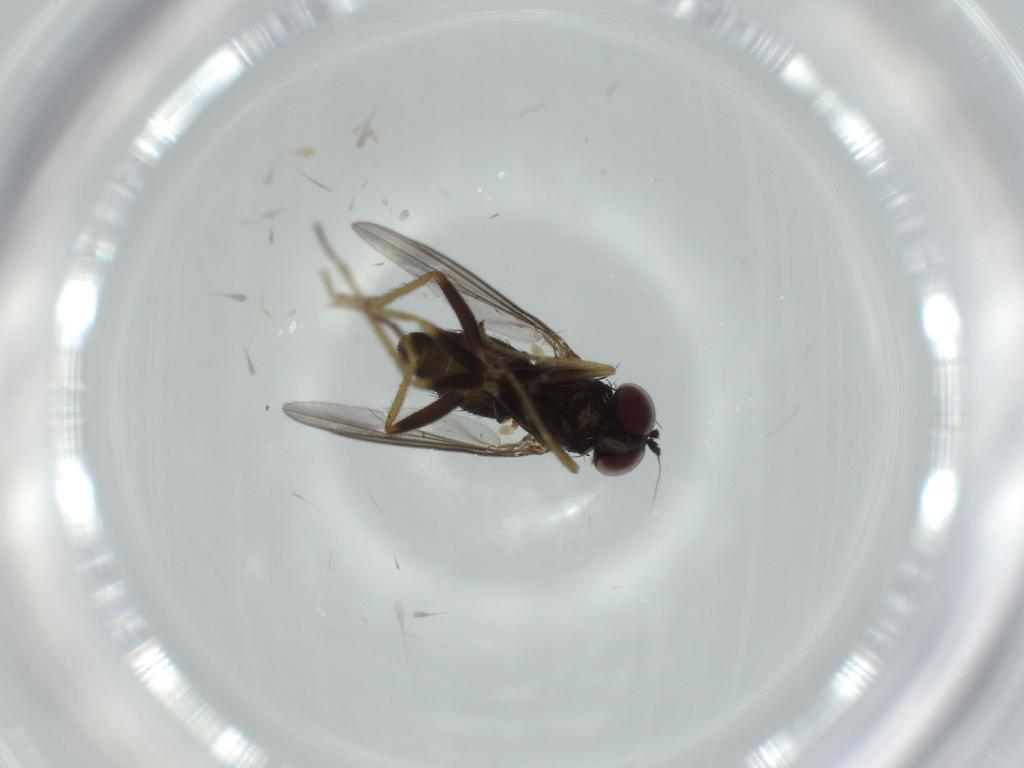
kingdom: Animalia
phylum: Arthropoda
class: Insecta
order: Diptera
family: Dolichopodidae
